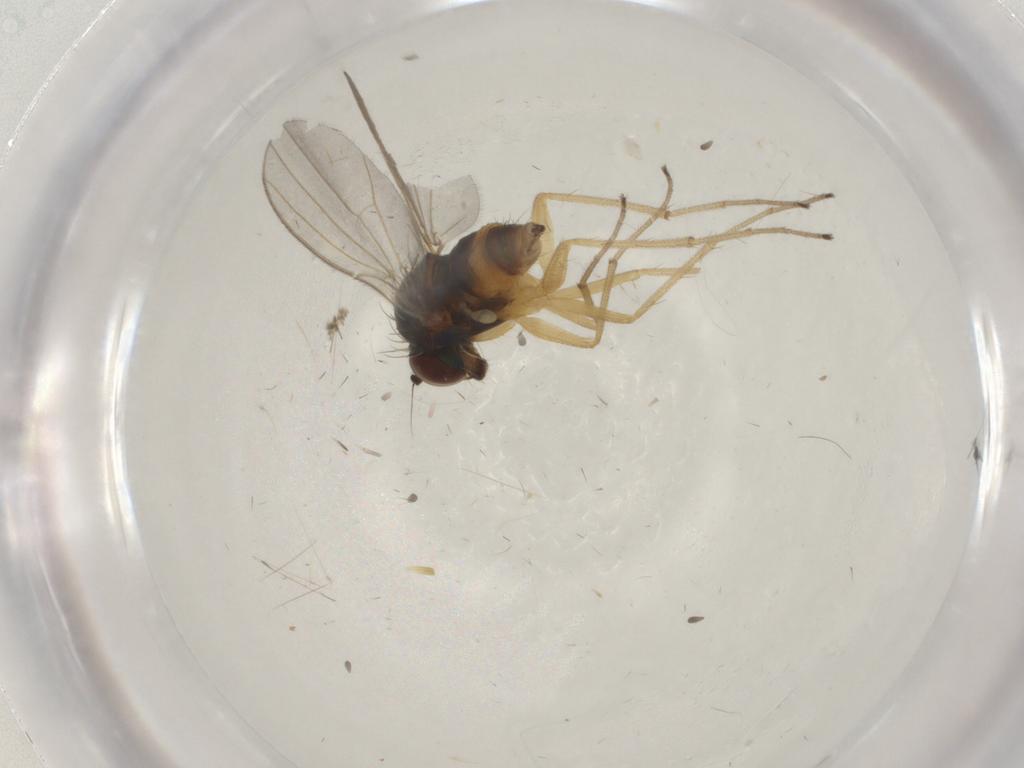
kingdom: Animalia
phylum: Arthropoda
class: Insecta
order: Diptera
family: Dolichopodidae
